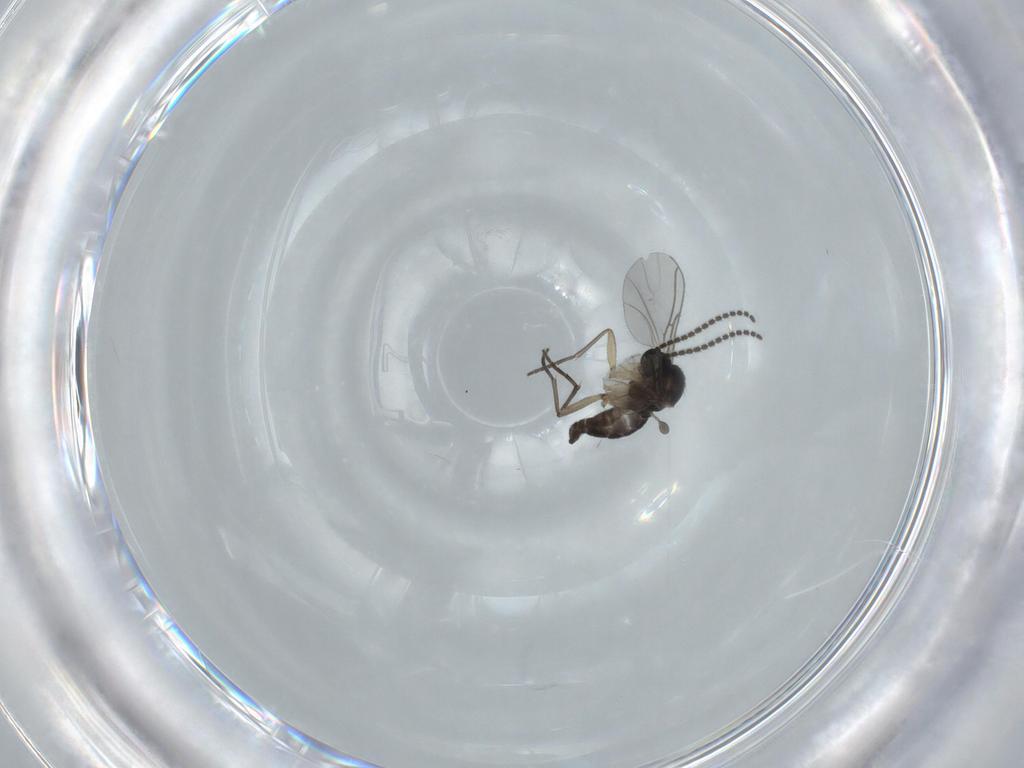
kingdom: Animalia
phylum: Arthropoda
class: Insecta
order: Diptera
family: Sciaridae
